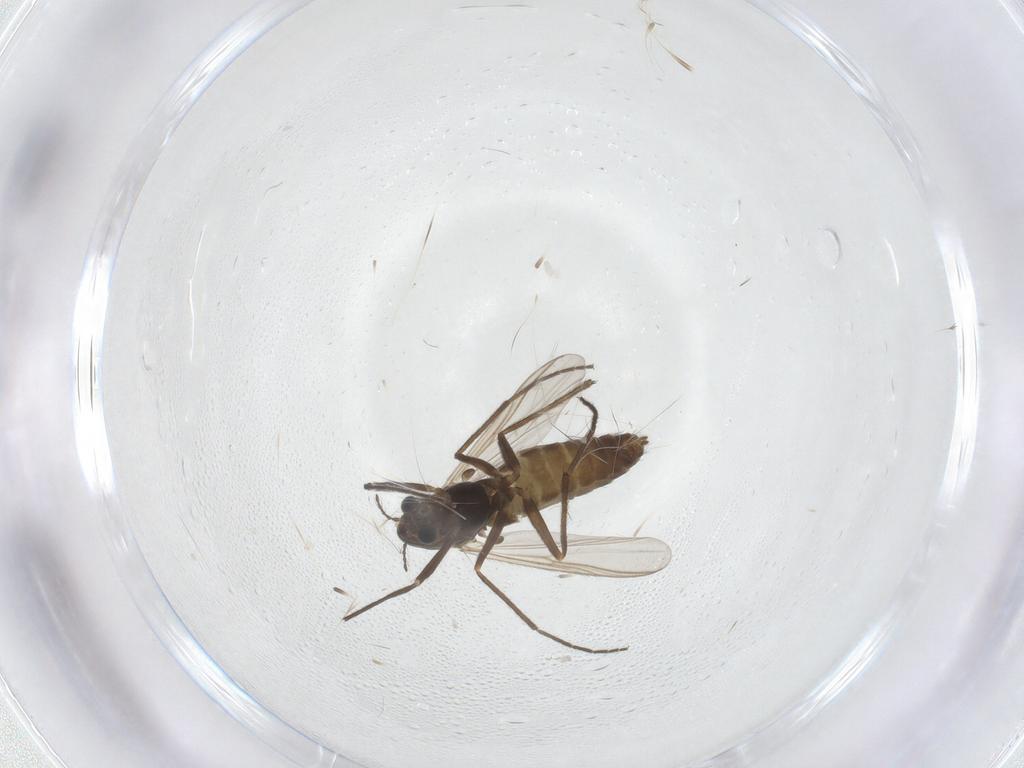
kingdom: Animalia
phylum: Arthropoda
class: Insecta
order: Diptera
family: Chironomidae
